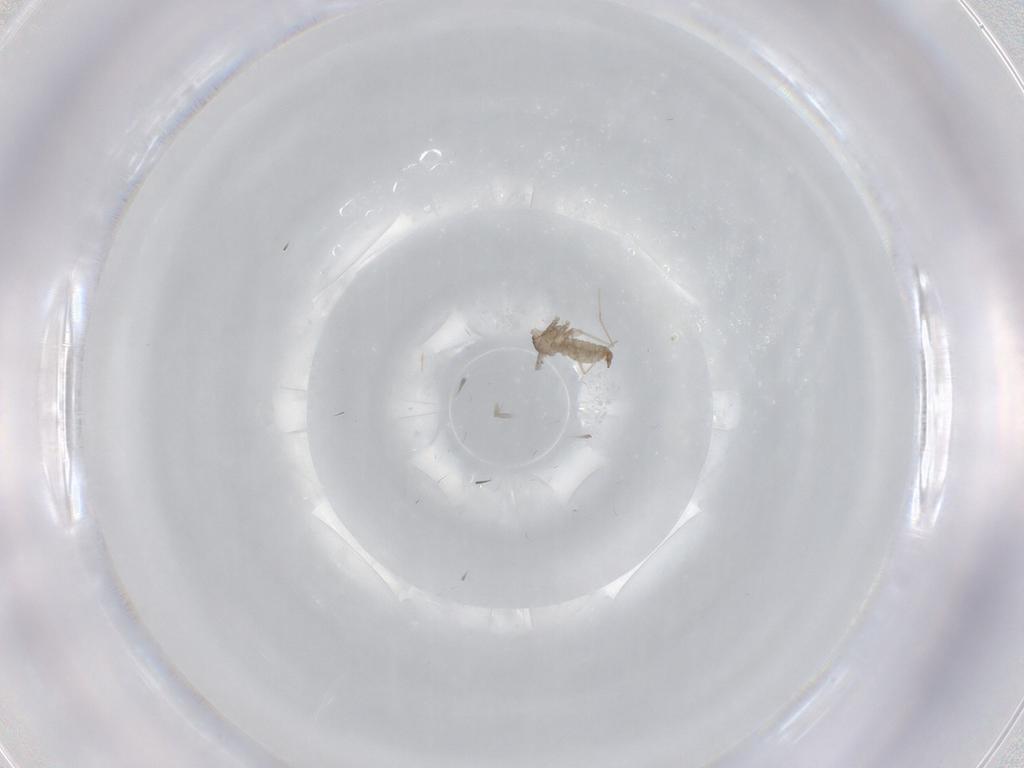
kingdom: Animalia
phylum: Arthropoda
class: Insecta
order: Diptera
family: Cecidomyiidae
